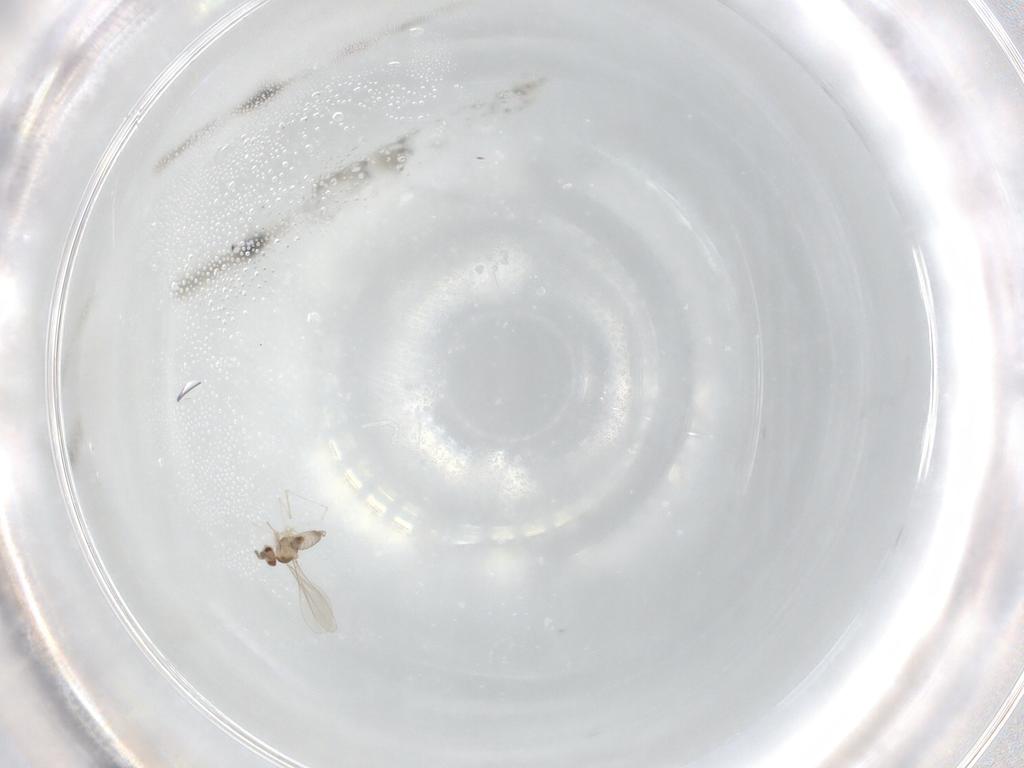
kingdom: Animalia
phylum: Arthropoda
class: Insecta
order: Diptera
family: Cecidomyiidae
